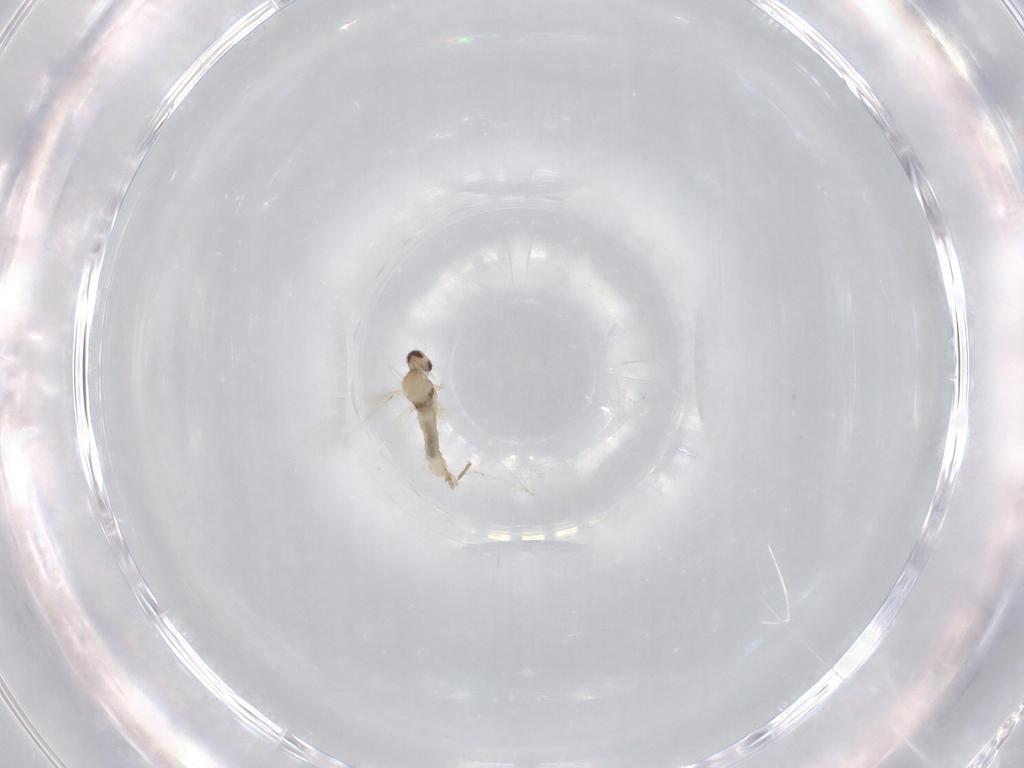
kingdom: Animalia
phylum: Arthropoda
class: Insecta
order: Diptera
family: Cecidomyiidae
